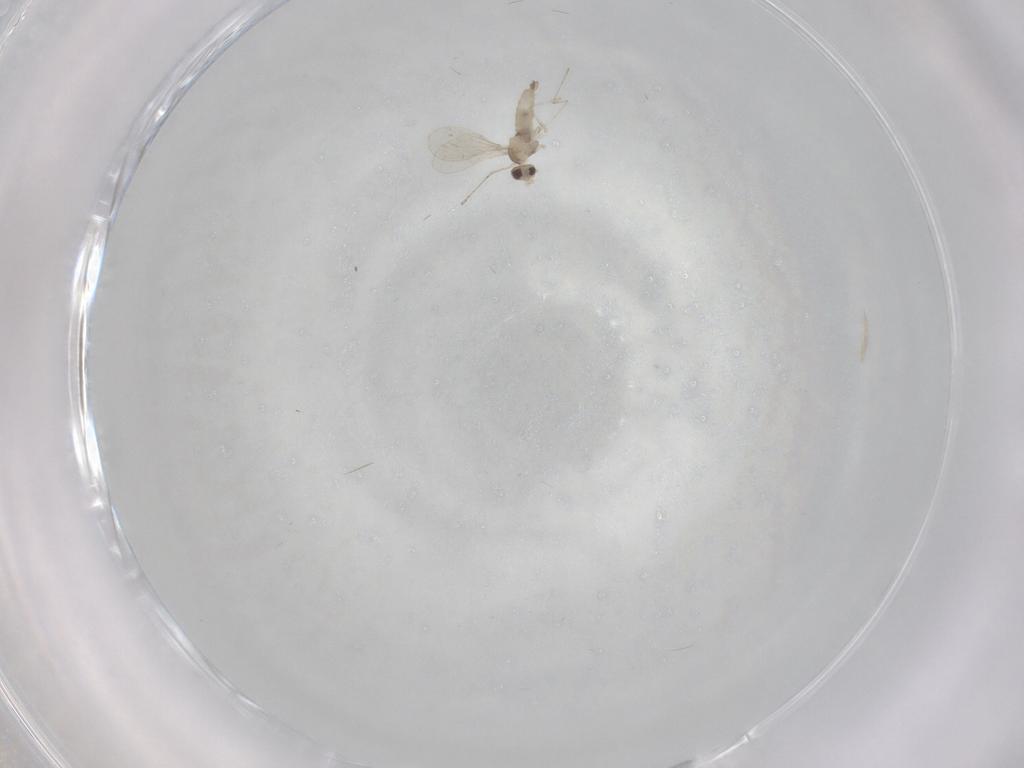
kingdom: Animalia
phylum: Arthropoda
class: Insecta
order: Diptera
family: Cecidomyiidae
